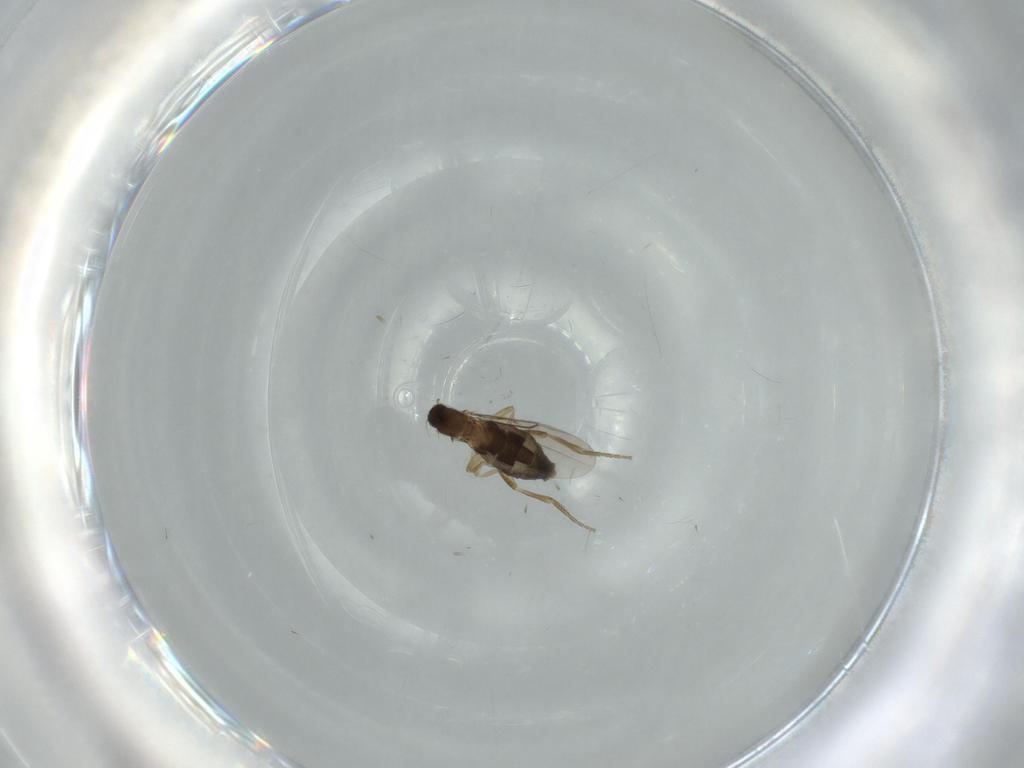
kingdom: Animalia
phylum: Arthropoda
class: Insecta
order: Diptera
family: Phoridae
